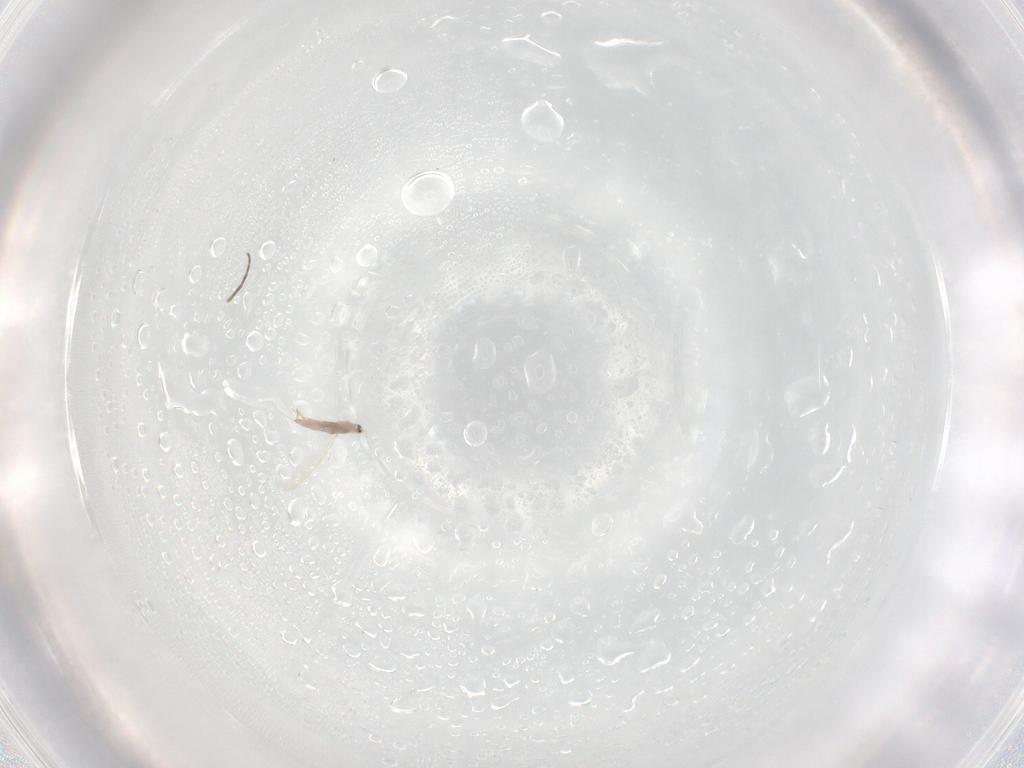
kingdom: Animalia
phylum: Arthropoda
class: Insecta
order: Hemiptera
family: Coccoidea_incertae_sedis
